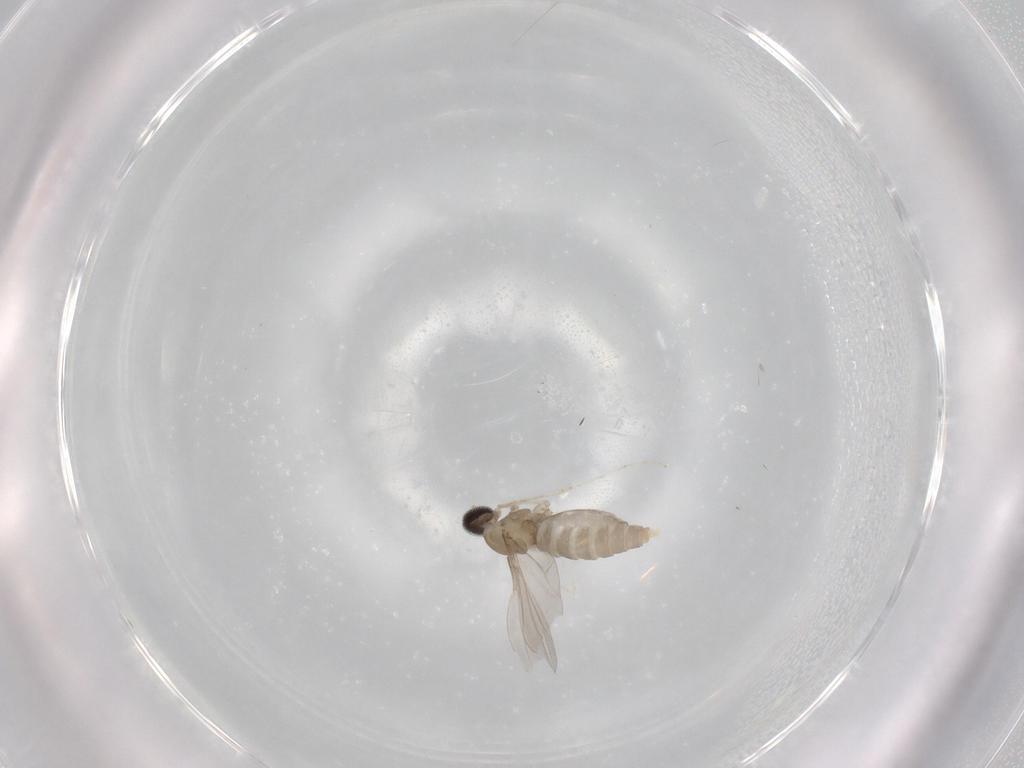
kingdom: Animalia
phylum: Arthropoda
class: Insecta
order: Diptera
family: Cecidomyiidae
